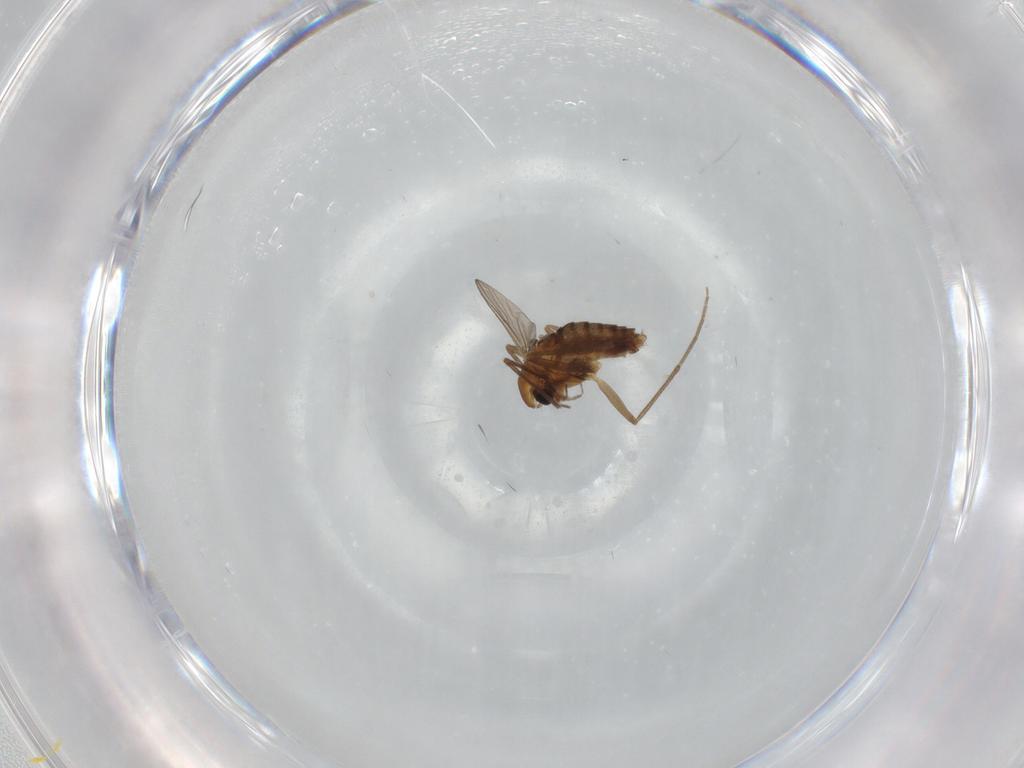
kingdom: Animalia
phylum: Arthropoda
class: Insecta
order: Diptera
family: Chironomidae
